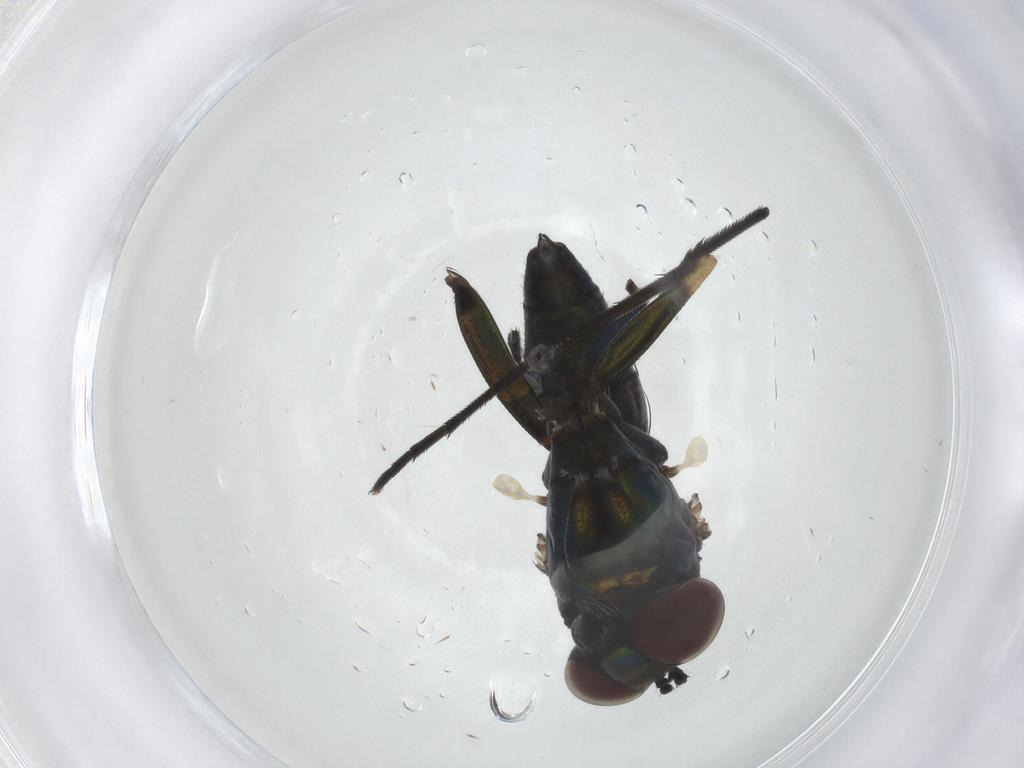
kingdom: Animalia
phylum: Arthropoda
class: Insecta
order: Diptera
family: Dolichopodidae
